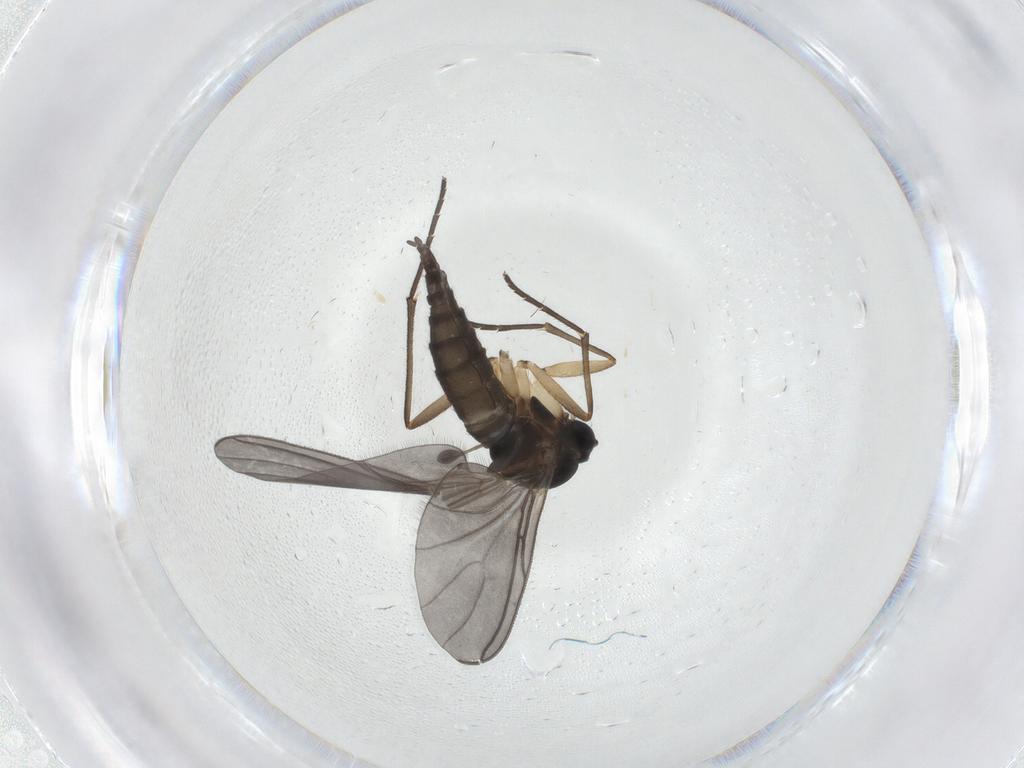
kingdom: Animalia
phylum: Arthropoda
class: Insecta
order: Diptera
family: Sciaridae
